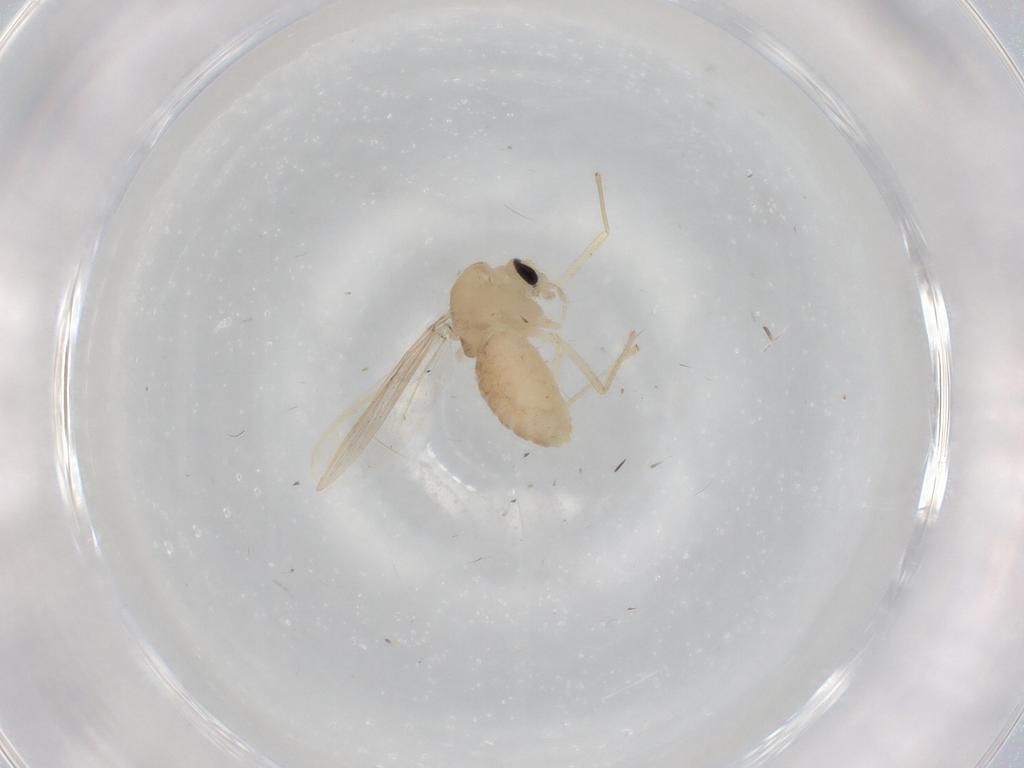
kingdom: Animalia
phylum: Arthropoda
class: Insecta
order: Diptera
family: Chironomidae
